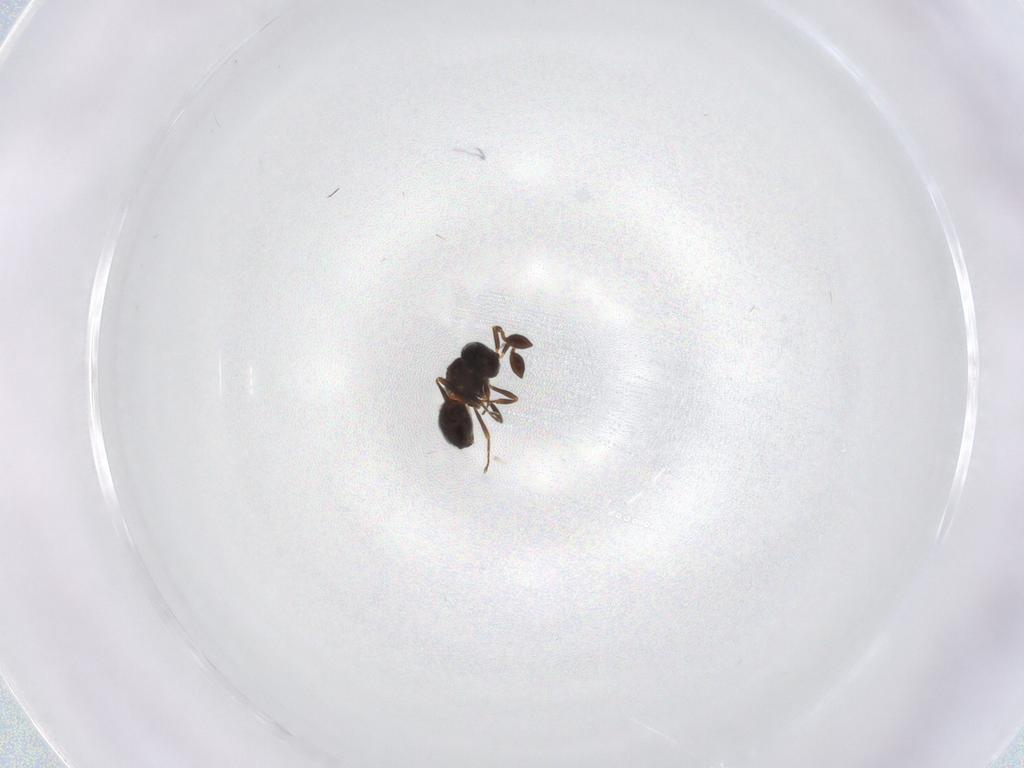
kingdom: Animalia
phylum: Arthropoda
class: Insecta
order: Hymenoptera
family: Scelionidae
